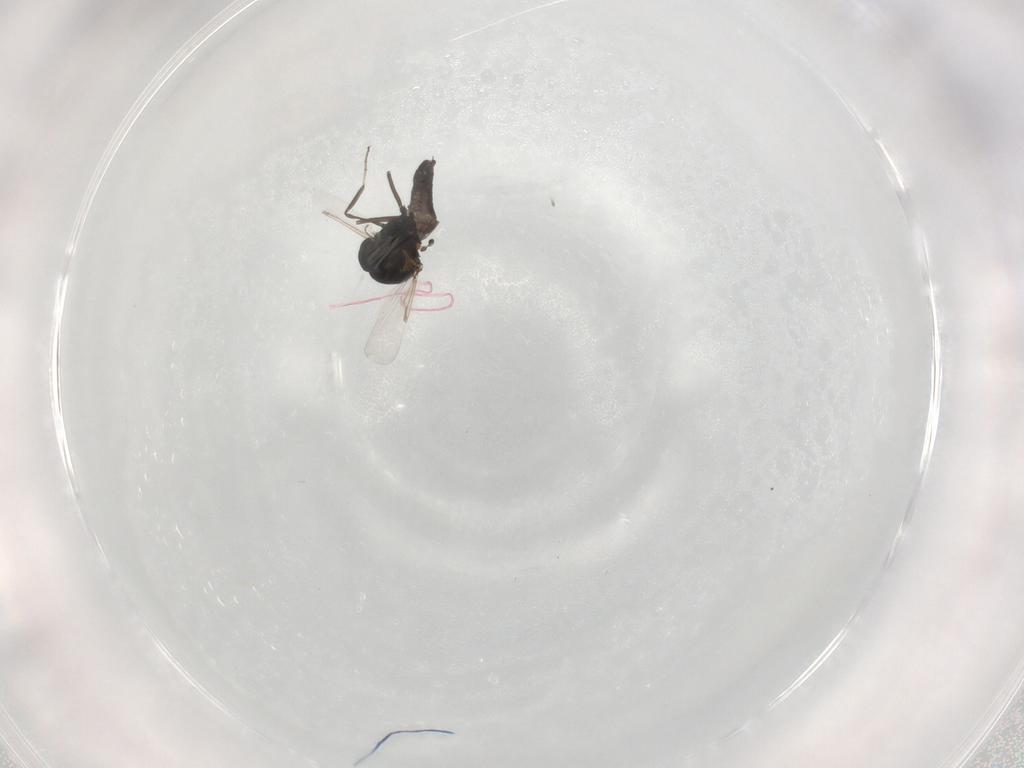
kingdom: Animalia
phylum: Arthropoda
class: Insecta
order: Diptera
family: Ceratopogonidae
